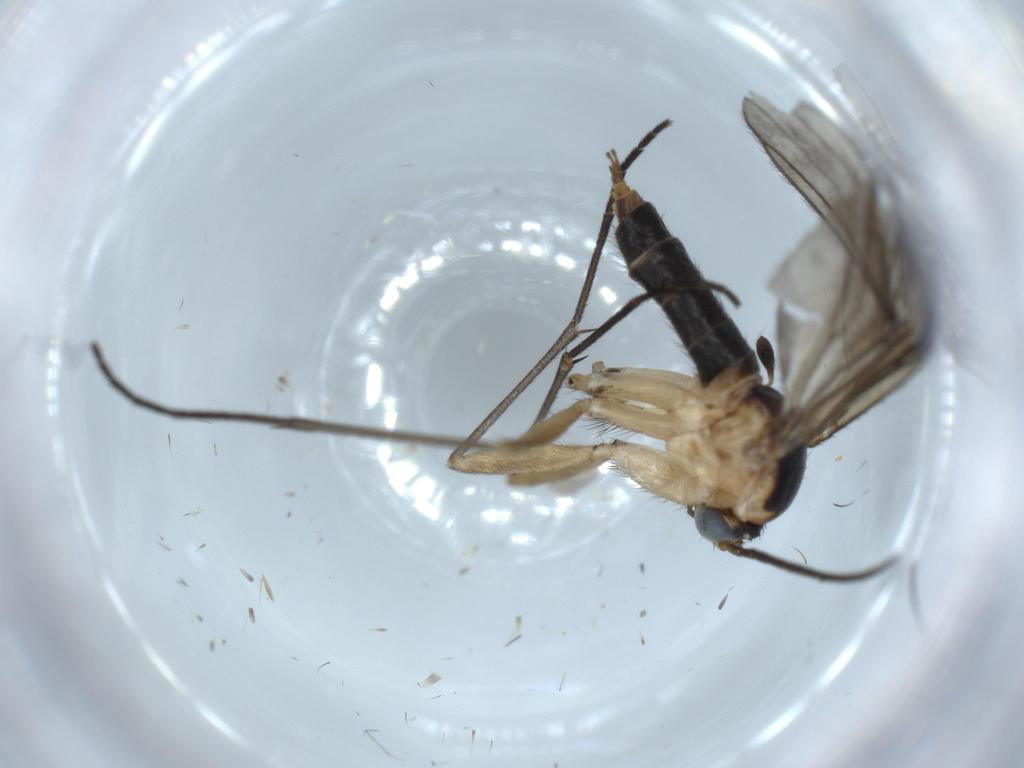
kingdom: Animalia
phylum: Arthropoda
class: Insecta
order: Diptera
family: Sciaridae
